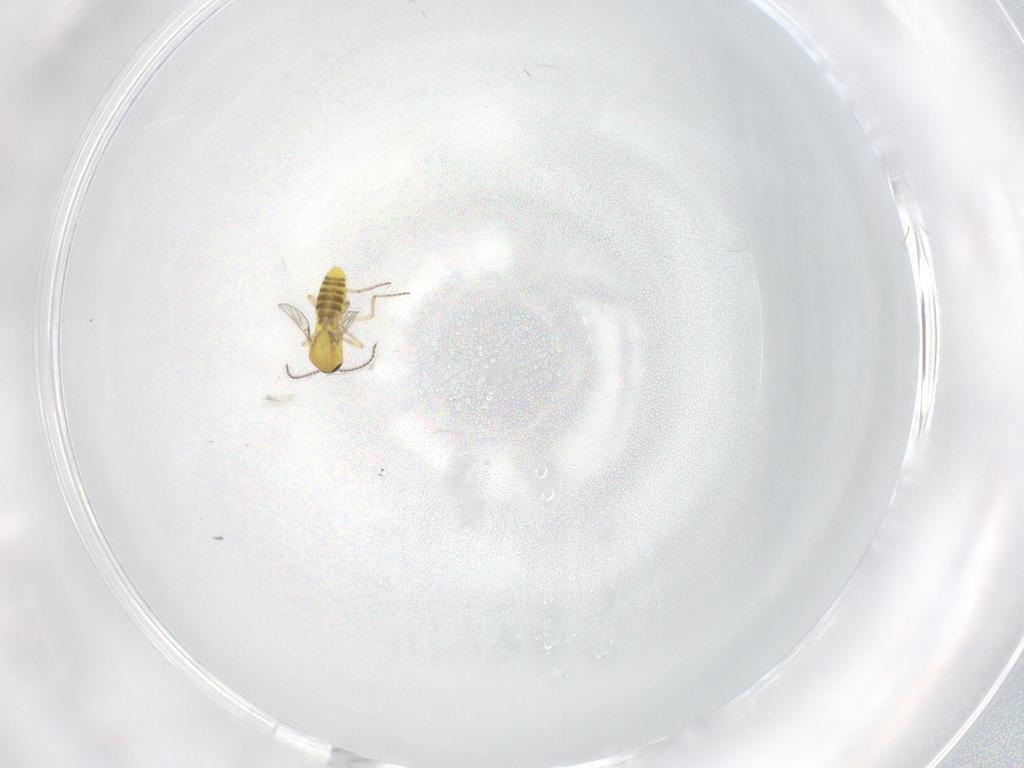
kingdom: Animalia
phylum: Arthropoda
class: Insecta
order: Diptera
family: Ceratopogonidae
